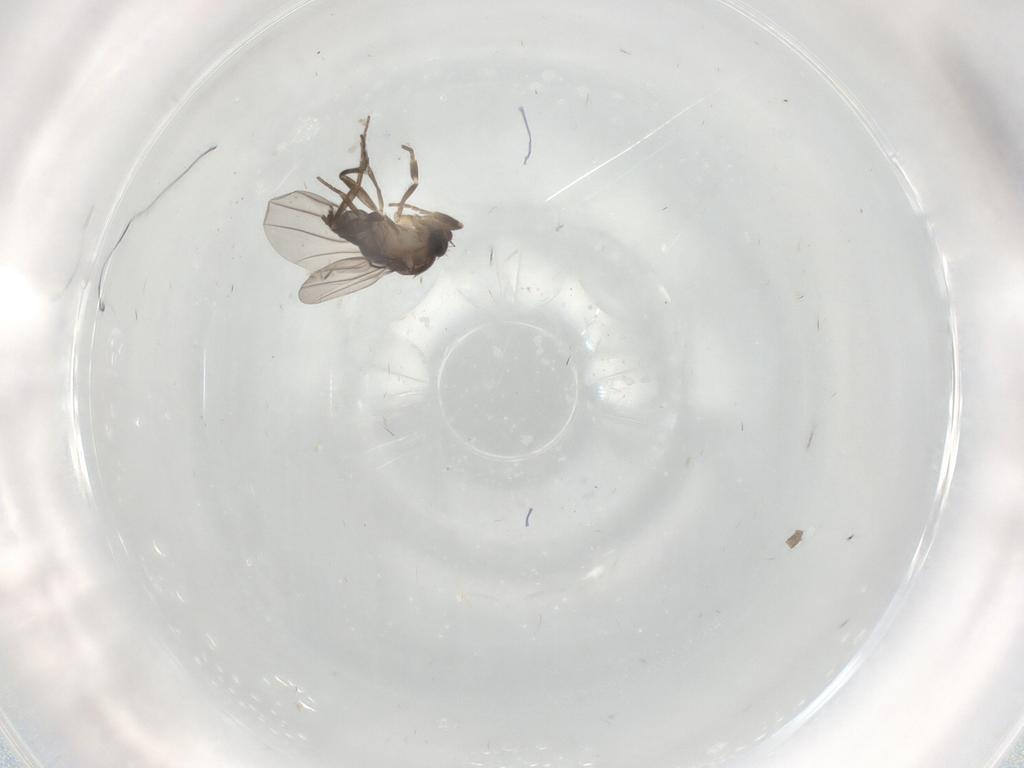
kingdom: Animalia
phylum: Arthropoda
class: Insecta
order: Diptera
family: Phoridae
